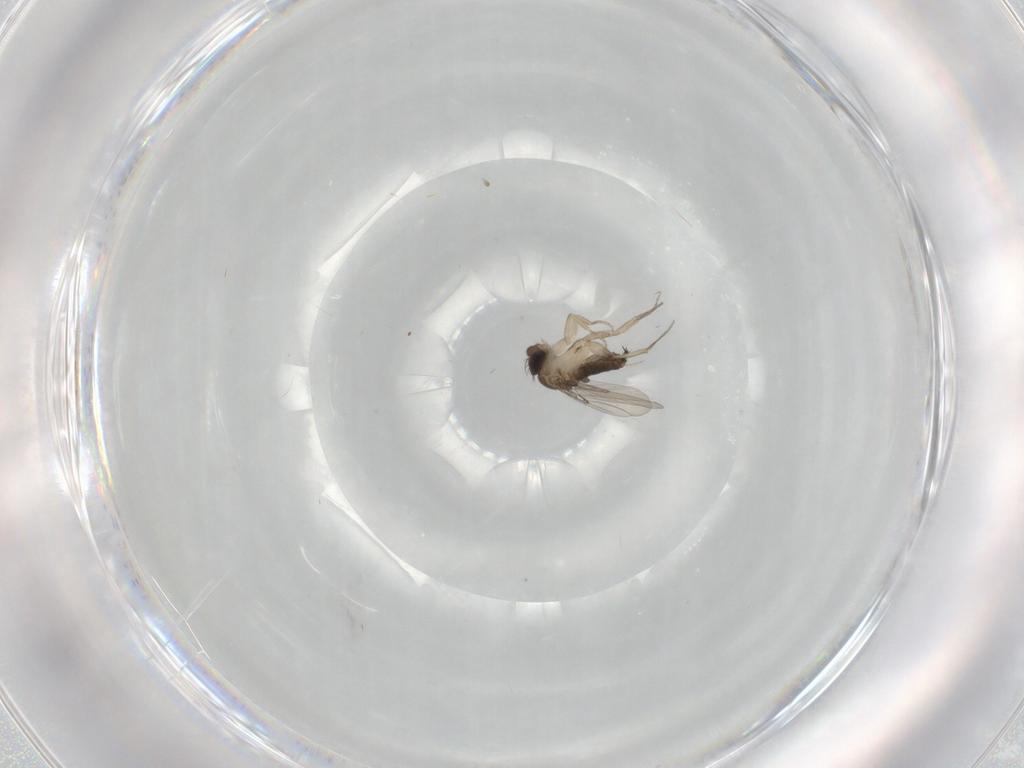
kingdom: Animalia
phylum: Arthropoda
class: Insecta
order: Diptera
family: Phoridae
